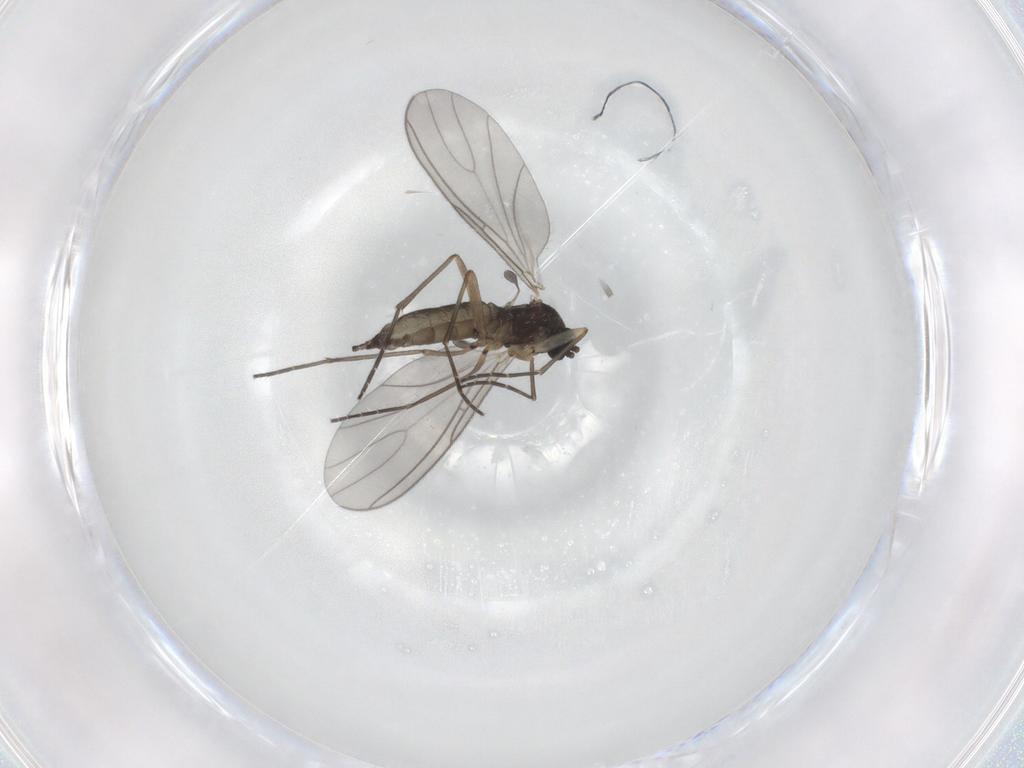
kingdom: Animalia
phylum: Arthropoda
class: Insecta
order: Diptera
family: Sciaridae
